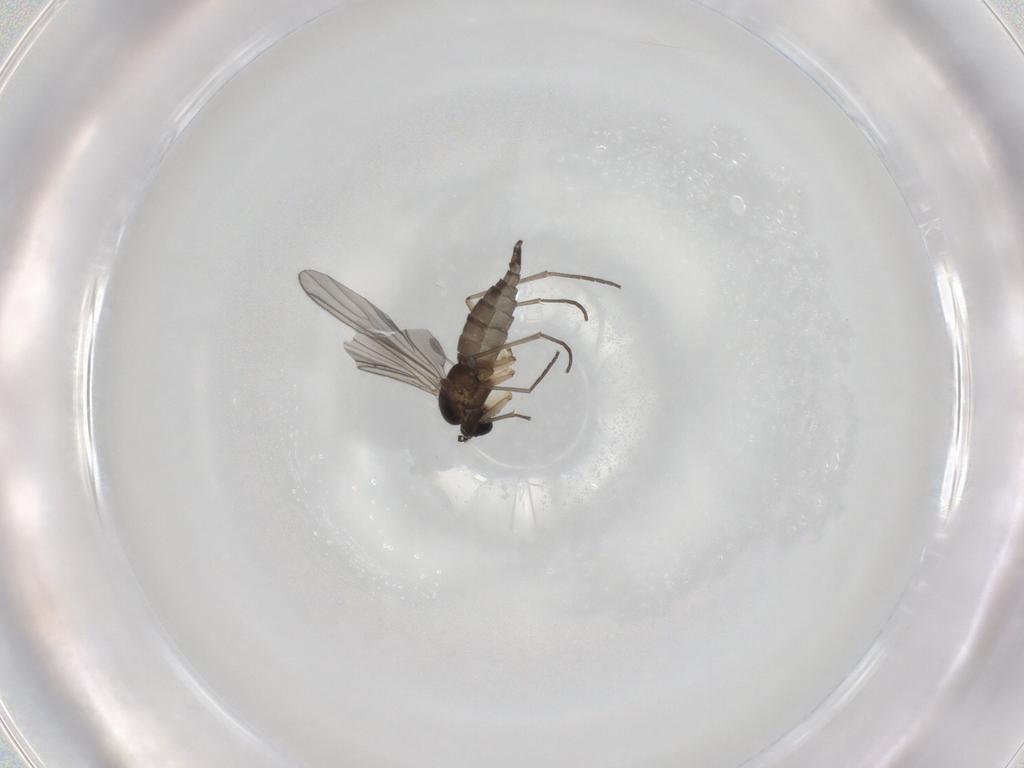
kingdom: Animalia
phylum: Arthropoda
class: Insecta
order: Diptera
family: Sciaridae
